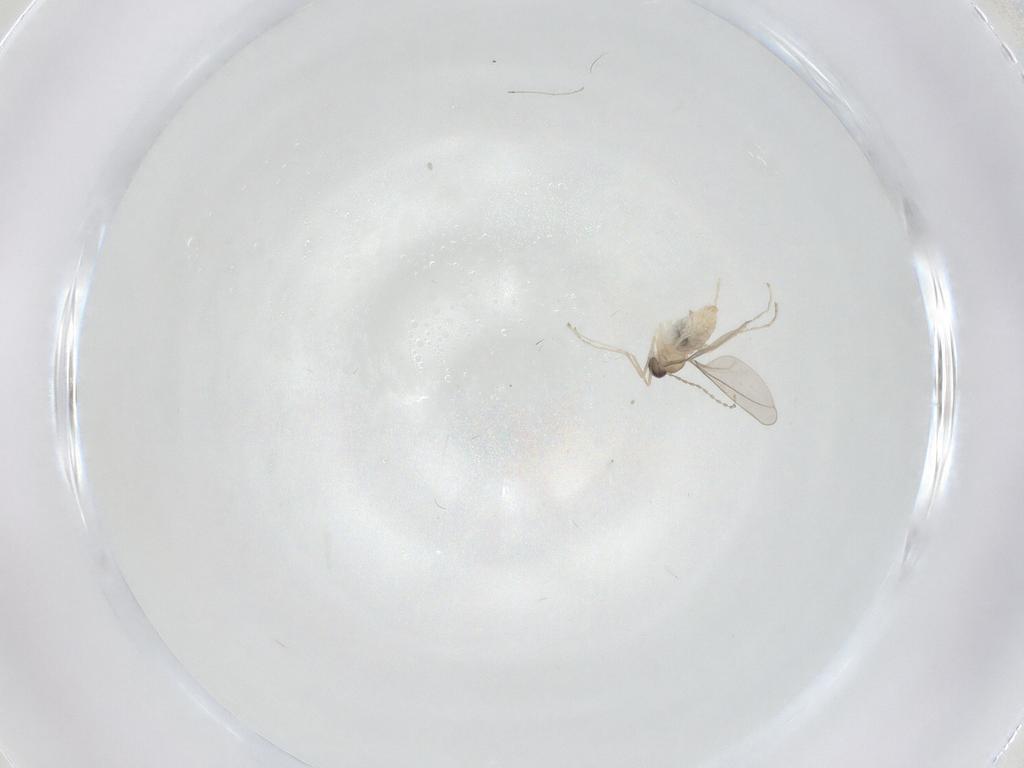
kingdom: Animalia
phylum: Arthropoda
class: Insecta
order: Diptera
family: Cecidomyiidae
